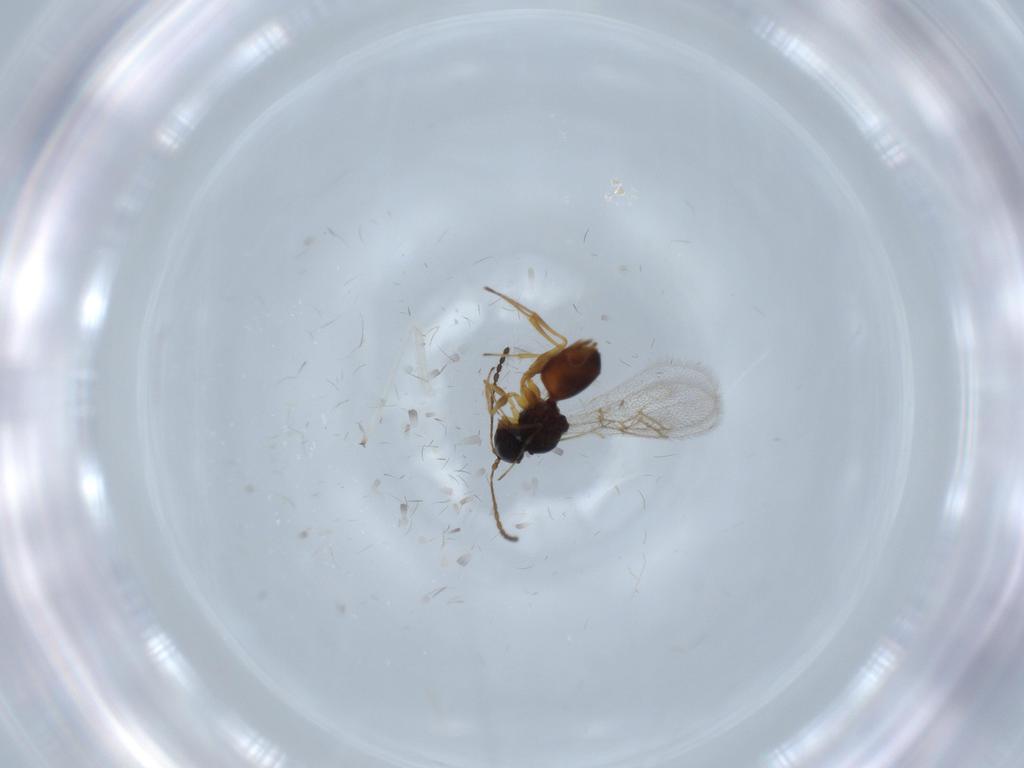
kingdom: Animalia
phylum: Arthropoda
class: Insecta
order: Hymenoptera
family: Figitidae
